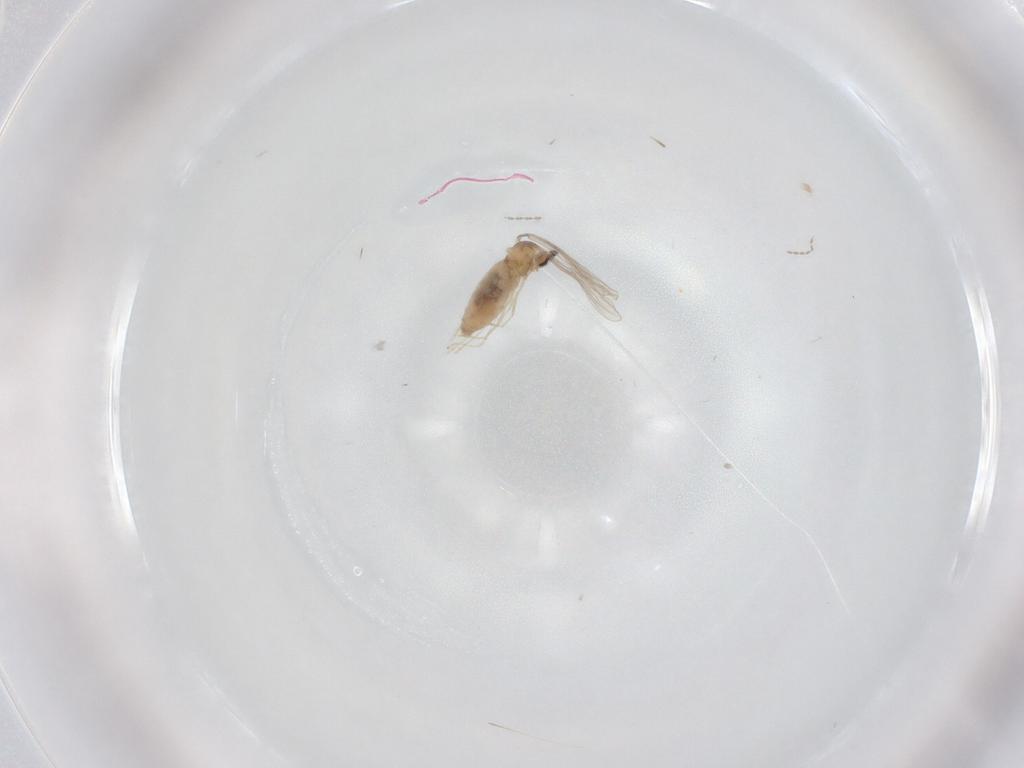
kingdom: Animalia
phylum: Arthropoda
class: Insecta
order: Diptera
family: Cecidomyiidae
